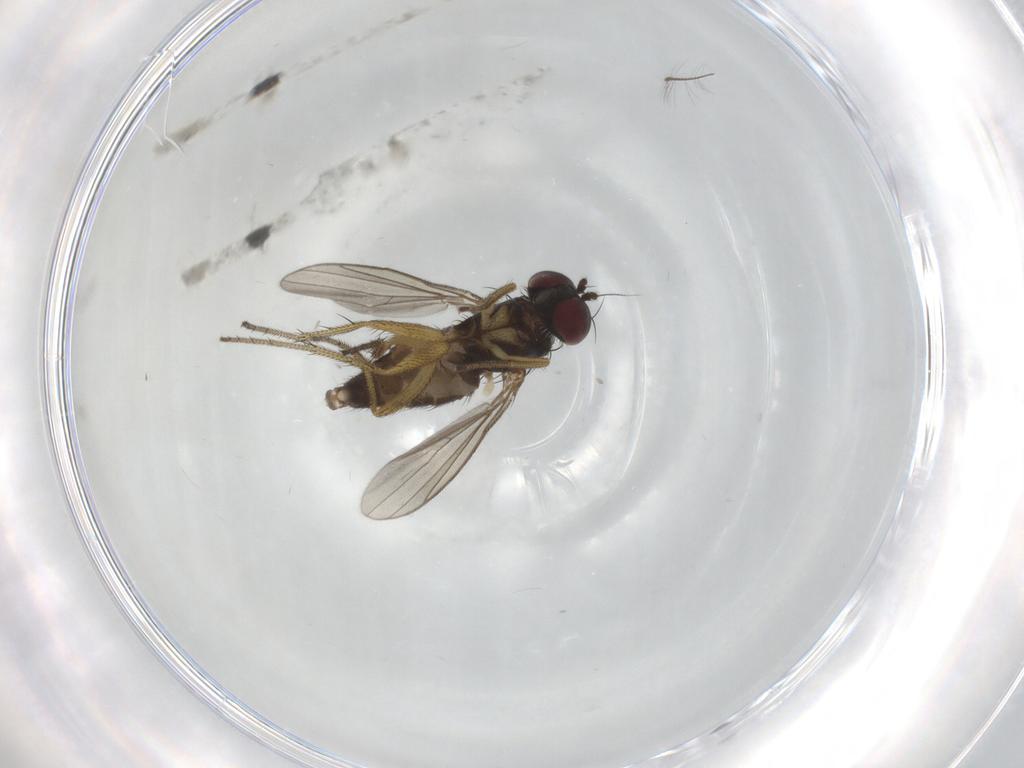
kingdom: Animalia
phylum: Arthropoda
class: Insecta
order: Diptera
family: Chironomidae
